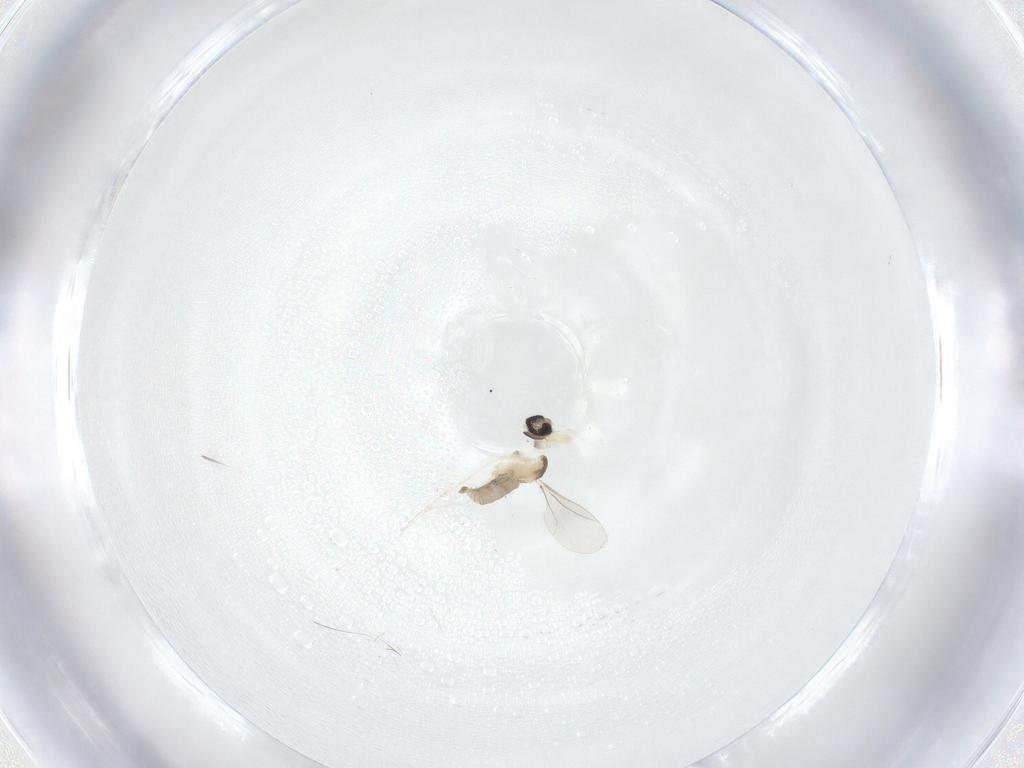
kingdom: Animalia
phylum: Arthropoda
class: Insecta
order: Diptera
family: Cecidomyiidae
